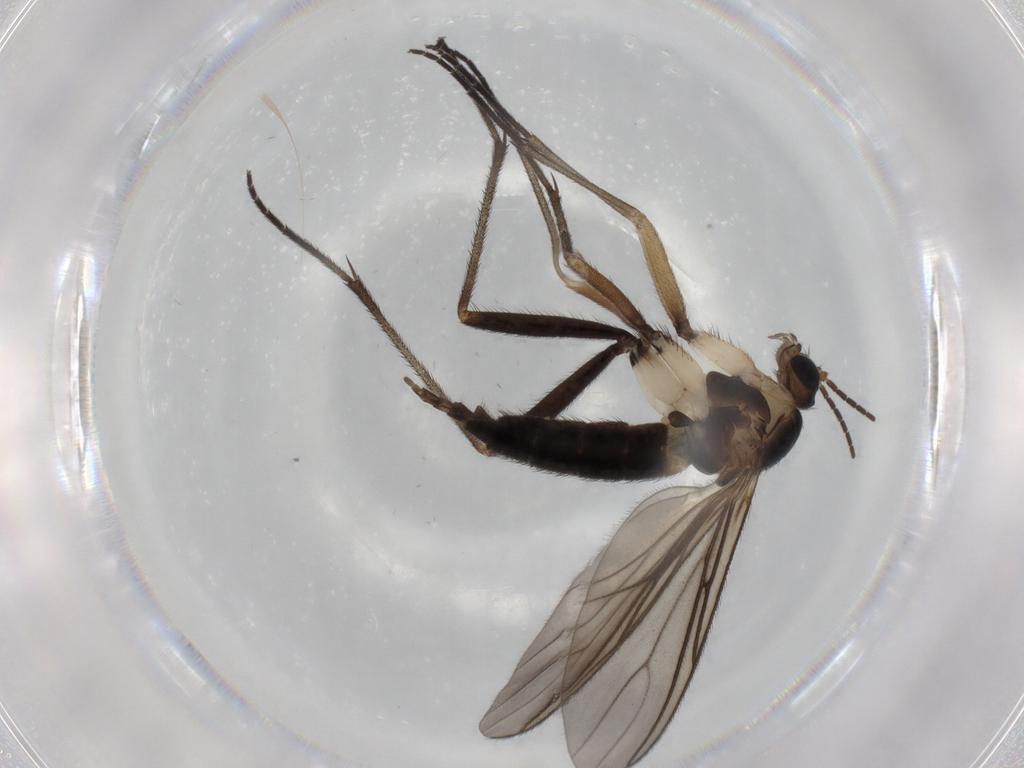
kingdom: Animalia
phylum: Arthropoda
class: Insecta
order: Diptera
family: Sciaridae
